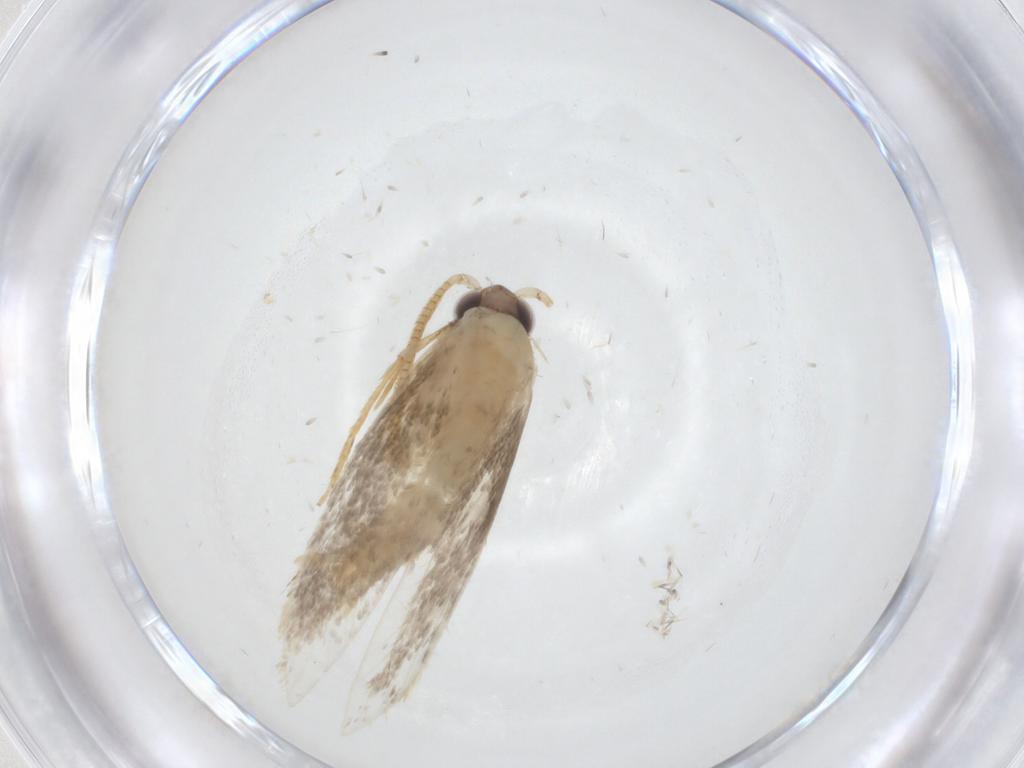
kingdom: Animalia
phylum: Arthropoda
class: Insecta
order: Lepidoptera
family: Tineidae
